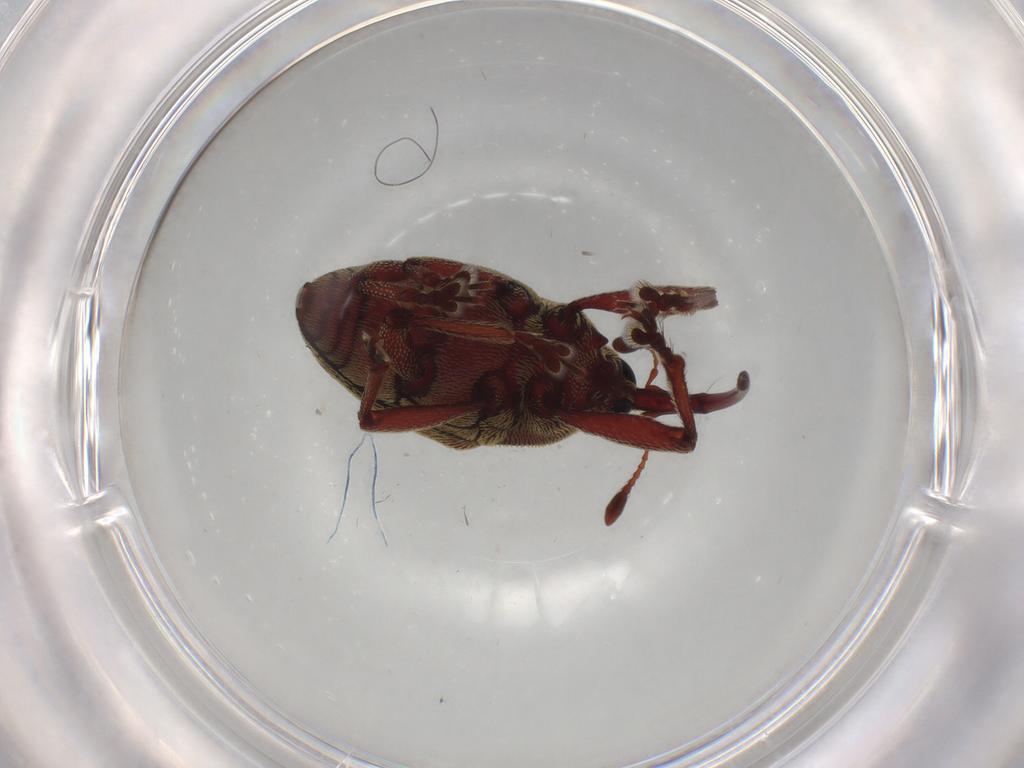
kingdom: Animalia
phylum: Arthropoda
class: Insecta
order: Coleoptera
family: Curculionidae
